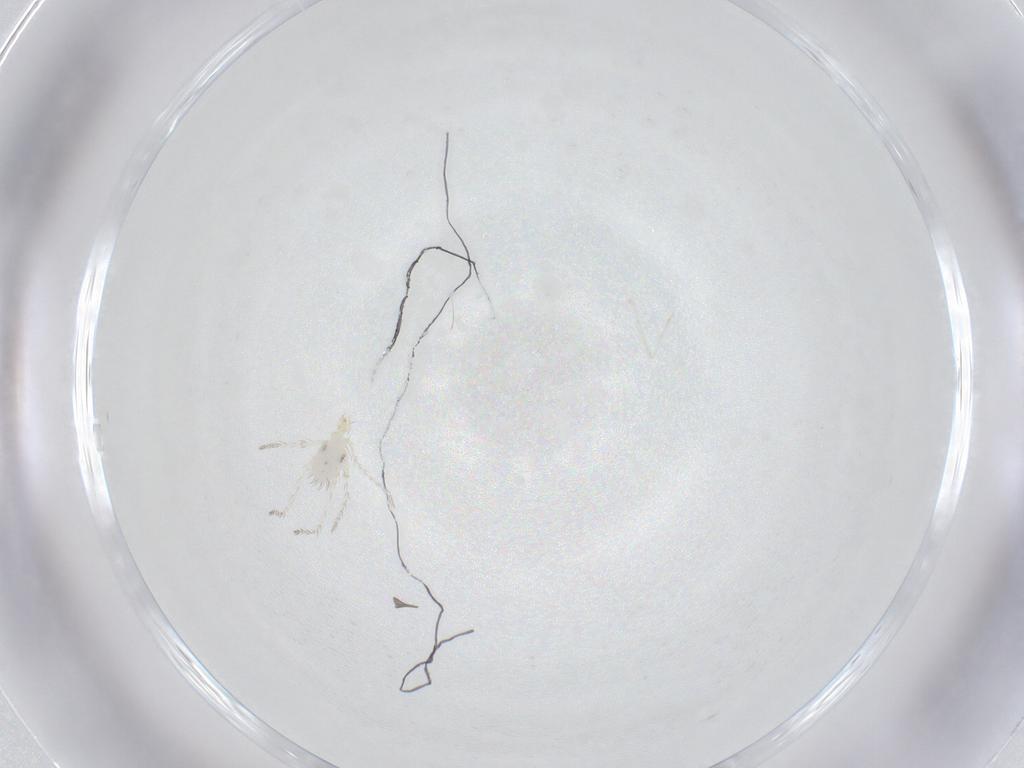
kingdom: Animalia
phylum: Arthropoda
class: Arachnida
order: Trombidiformes
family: Erythraeidae
